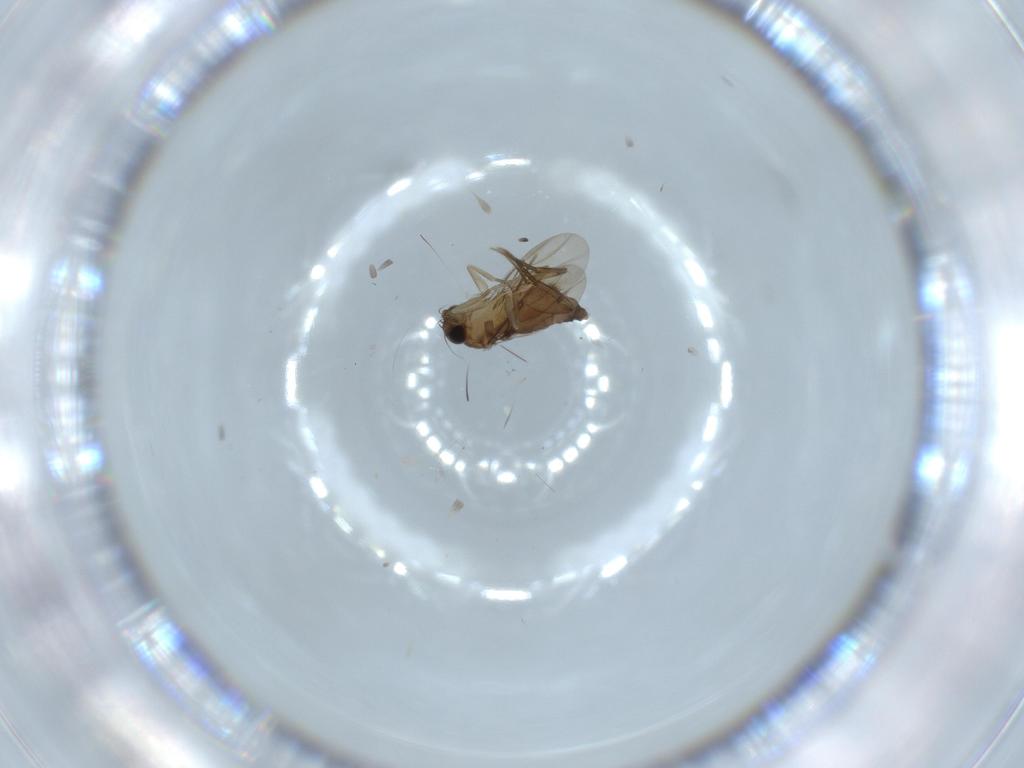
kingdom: Animalia
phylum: Arthropoda
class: Insecta
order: Diptera
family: Phoridae
